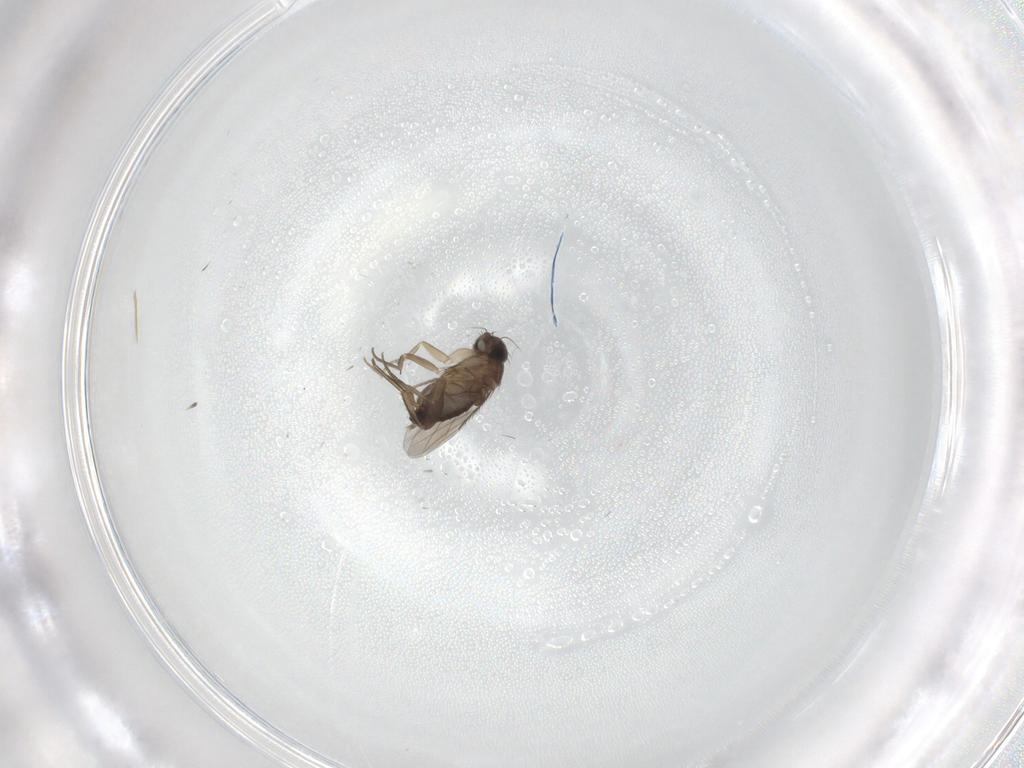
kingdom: Animalia
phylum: Arthropoda
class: Insecta
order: Diptera
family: Phoridae
